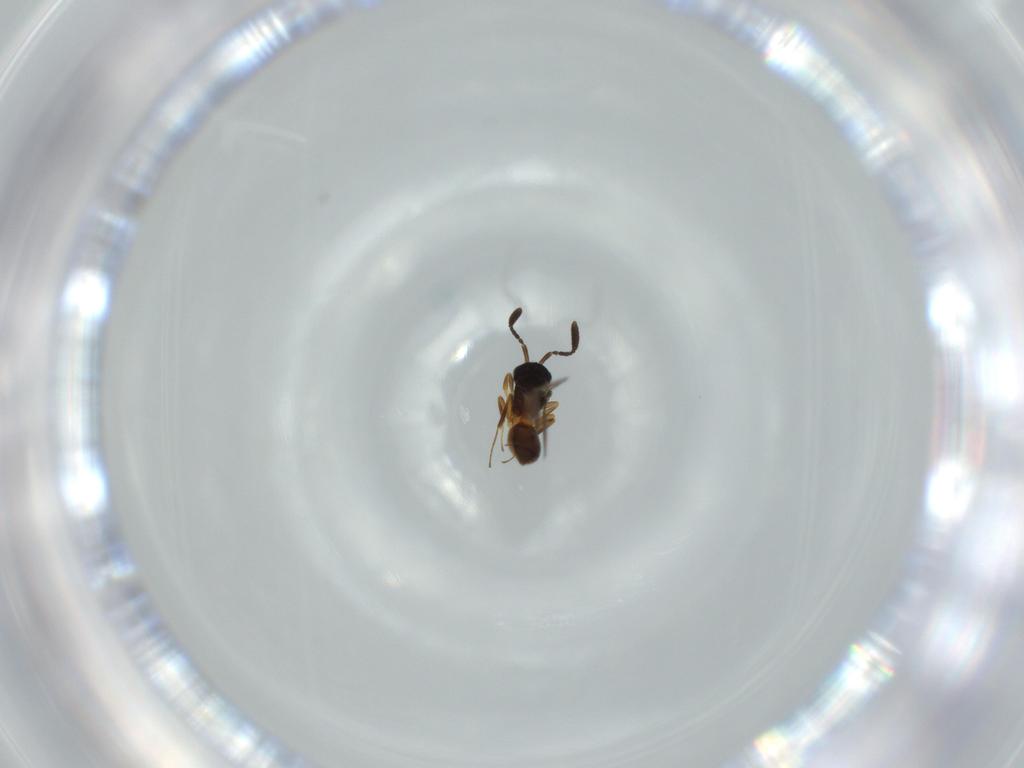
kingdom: Animalia
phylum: Arthropoda
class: Insecta
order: Hymenoptera
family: Scelionidae
